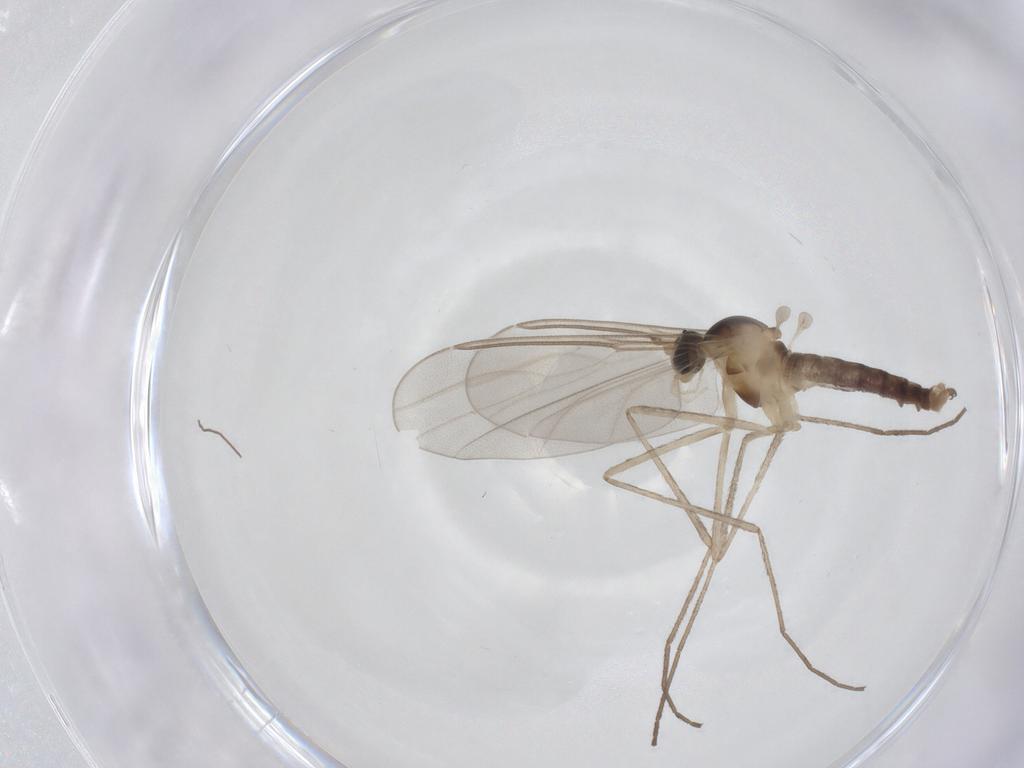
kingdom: Animalia
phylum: Arthropoda
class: Insecta
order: Diptera
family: Cecidomyiidae
